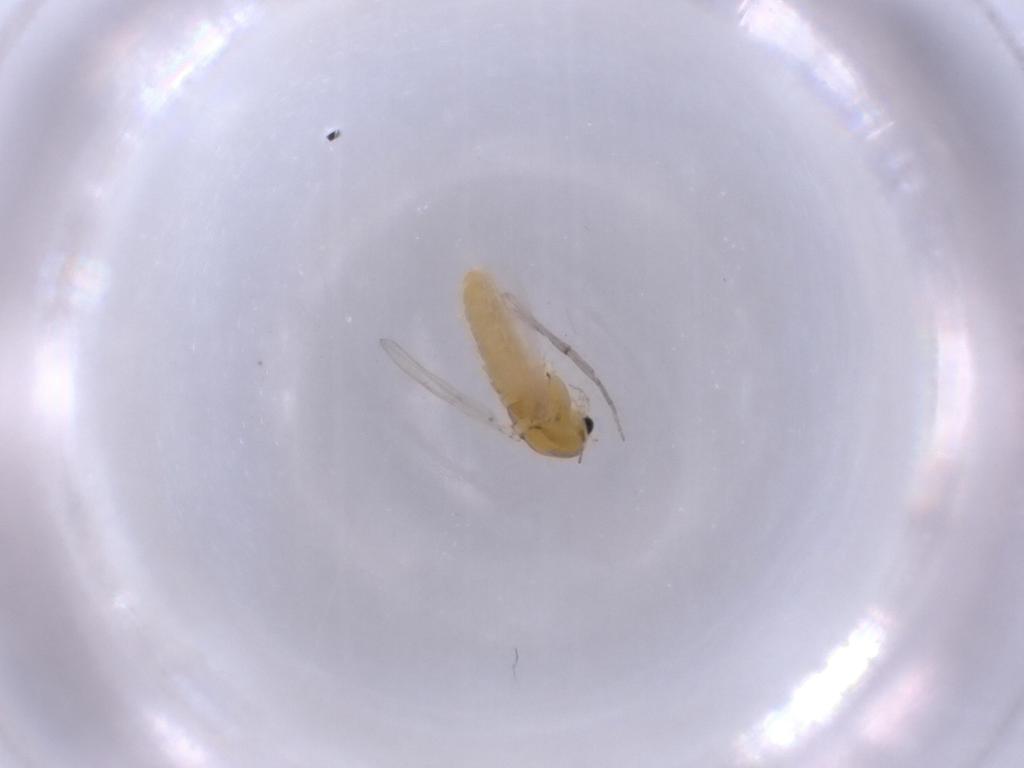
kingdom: Animalia
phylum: Arthropoda
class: Insecta
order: Diptera
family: Chironomidae
